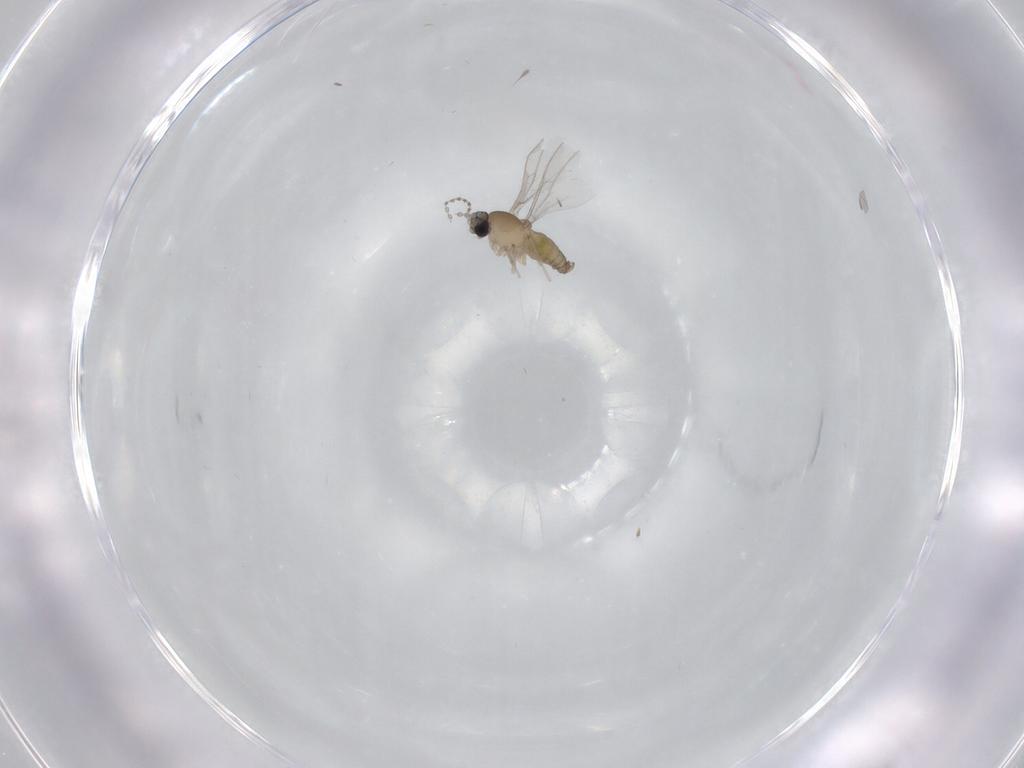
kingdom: Animalia
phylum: Arthropoda
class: Insecta
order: Diptera
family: Cecidomyiidae
